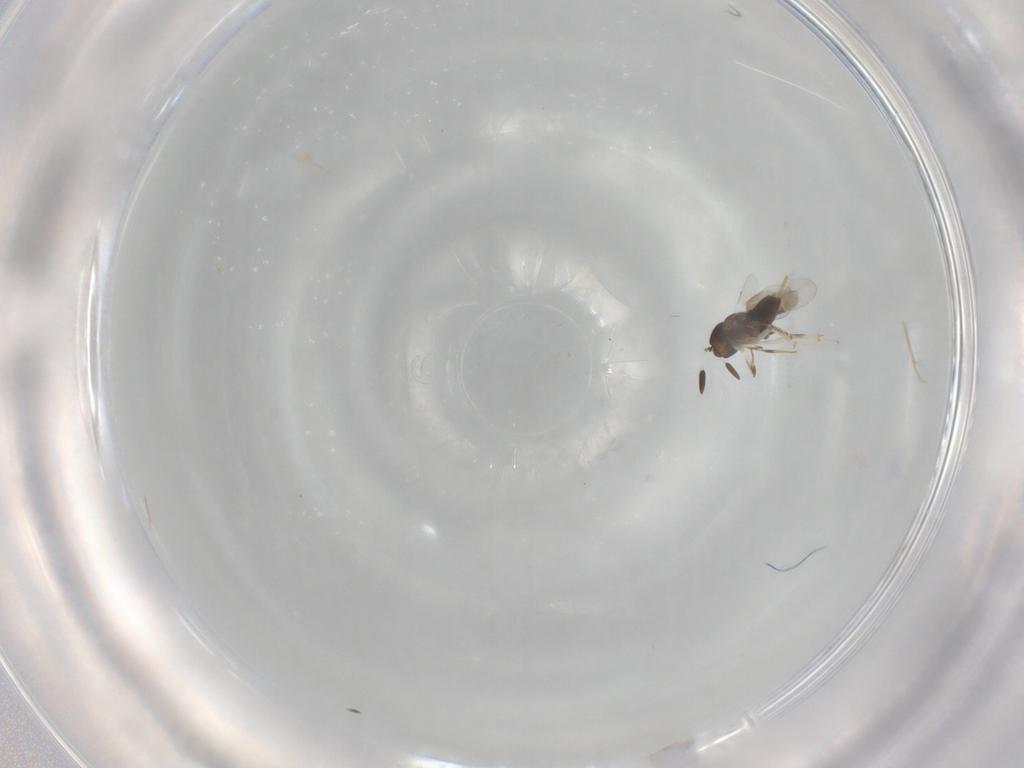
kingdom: Animalia
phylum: Arthropoda
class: Insecta
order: Hymenoptera
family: Encyrtidae
